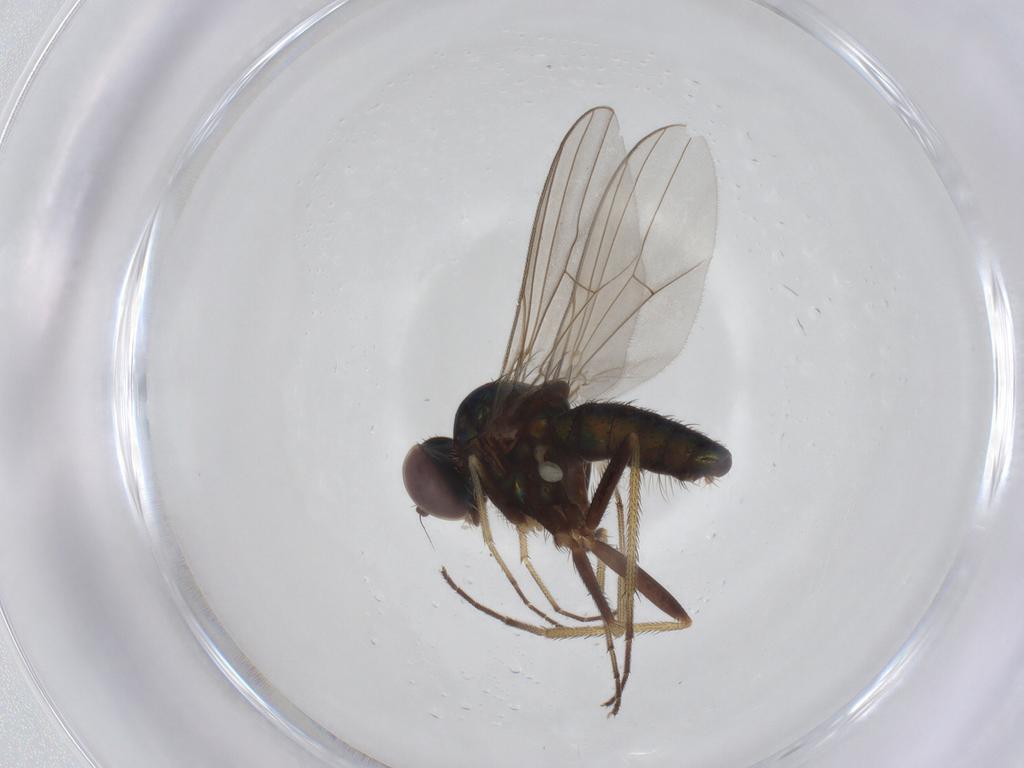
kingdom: Animalia
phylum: Arthropoda
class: Insecta
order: Diptera
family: Dolichopodidae
